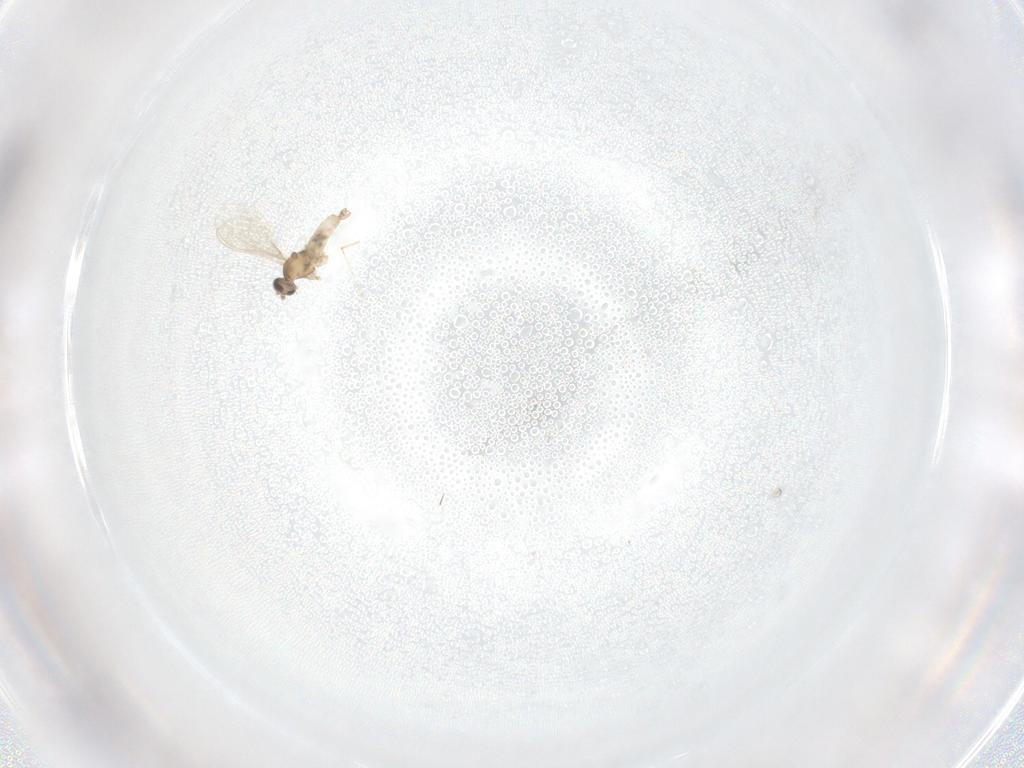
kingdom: Animalia
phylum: Arthropoda
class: Insecta
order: Diptera
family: Cecidomyiidae
